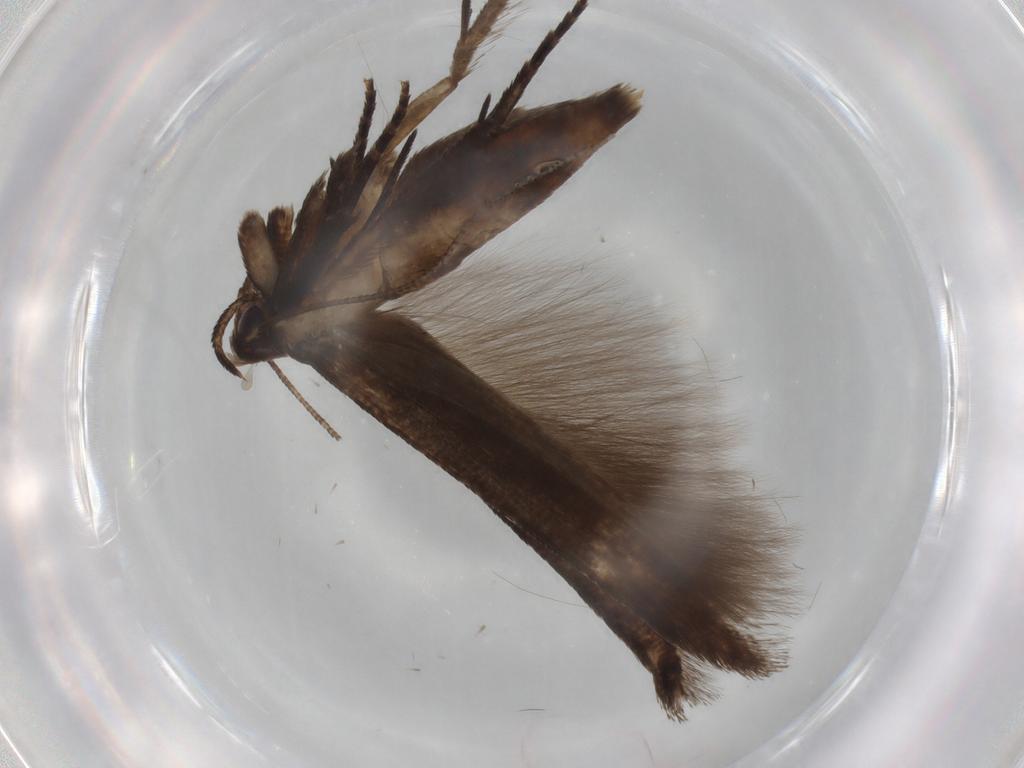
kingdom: Animalia
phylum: Arthropoda
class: Insecta
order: Lepidoptera
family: Cosmopterigidae
